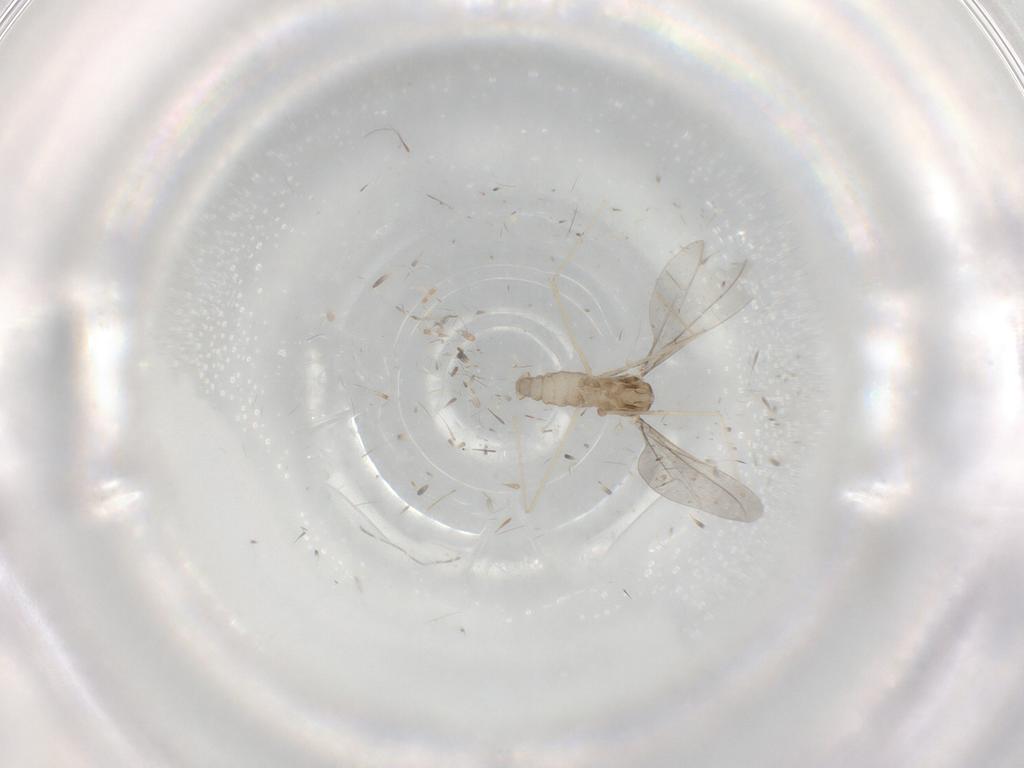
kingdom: Animalia
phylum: Arthropoda
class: Insecta
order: Diptera
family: Cecidomyiidae
